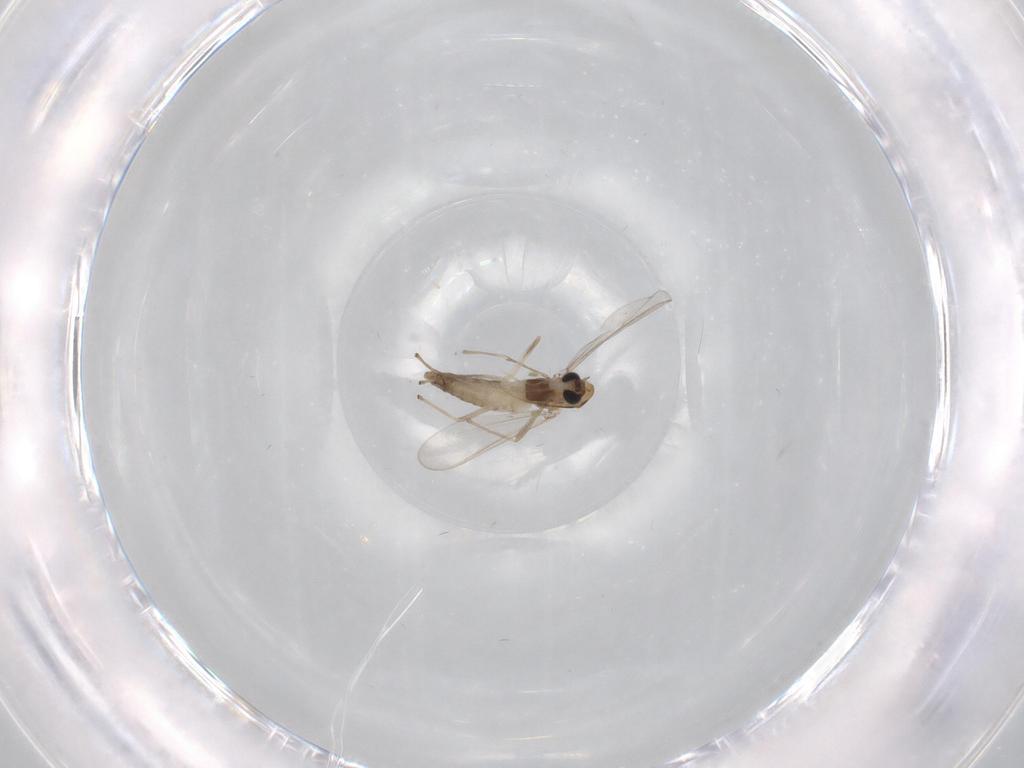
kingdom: Animalia
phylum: Arthropoda
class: Insecta
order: Diptera
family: Chironomidae
